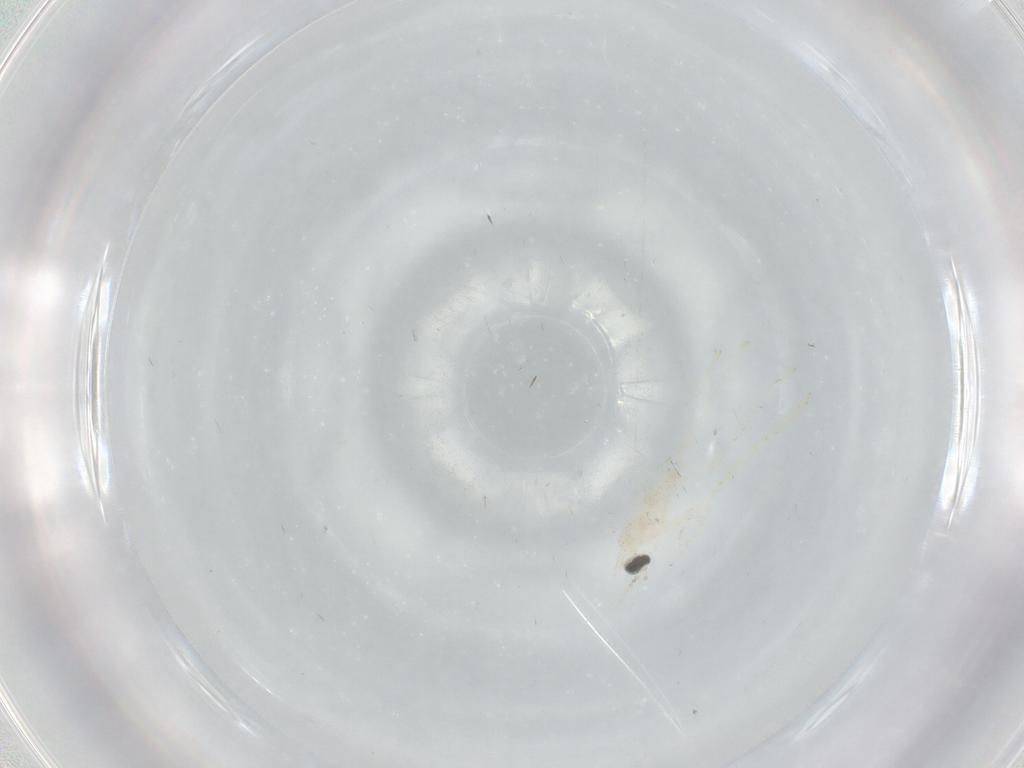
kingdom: Animalia
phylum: Arthropoda
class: Insecta
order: Diptera
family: Cecidomyiidae
